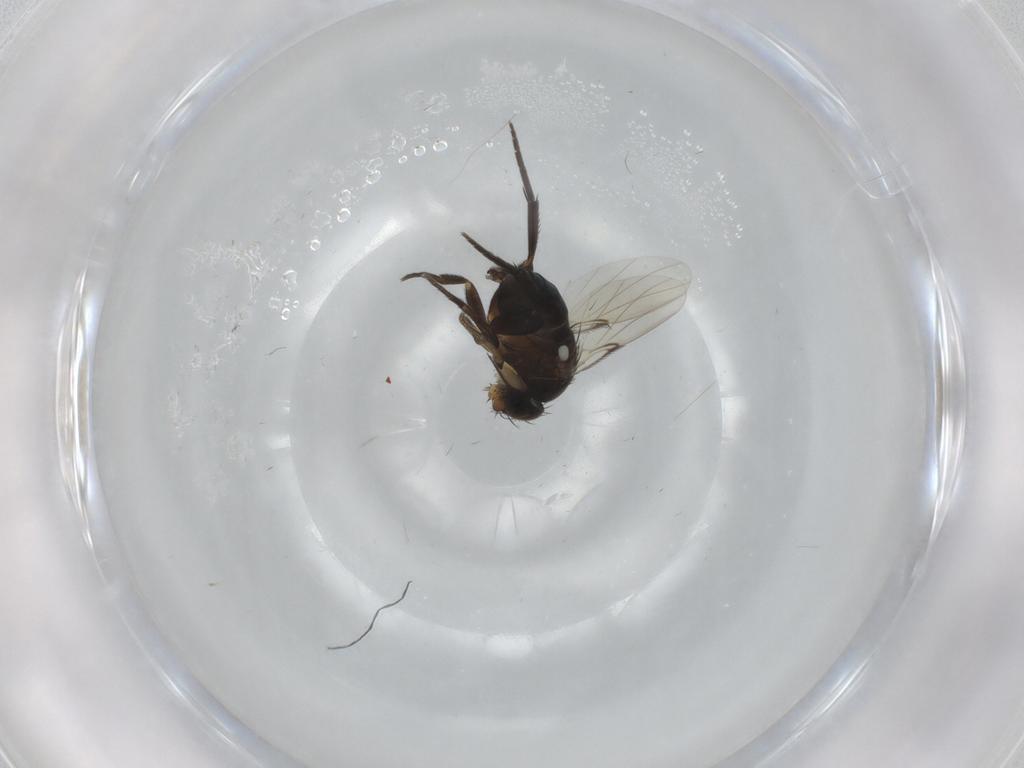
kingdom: Animalia
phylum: Arthropoda
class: Insecta
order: Diptera
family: Phoridae
